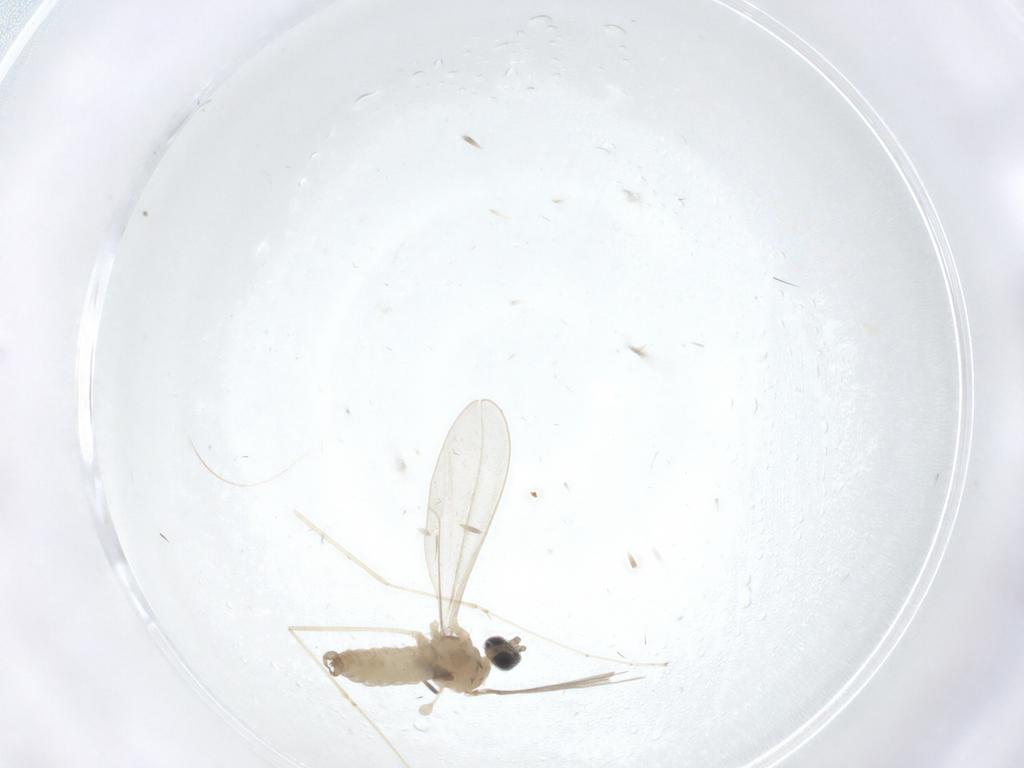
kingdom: Animalia
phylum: Arthropoda
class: Insecta
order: Diptera
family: Cecidomyiidae
